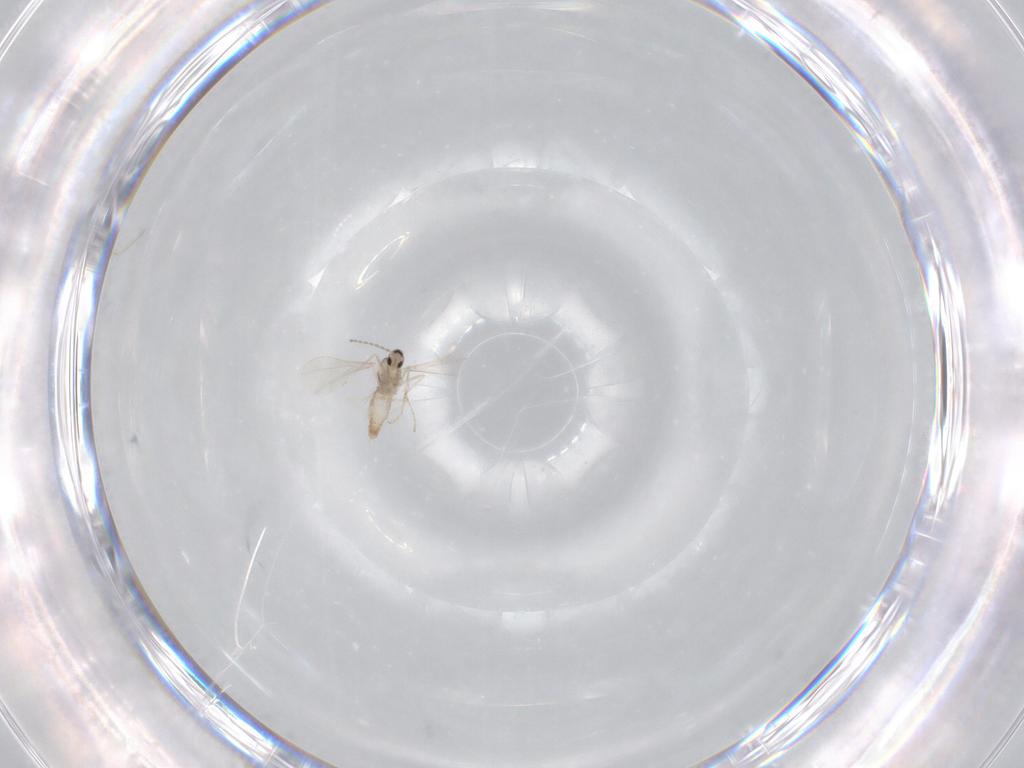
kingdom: Animalia
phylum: Arthropoda
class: Insecta
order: Diptera
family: Cecidomyiidae
